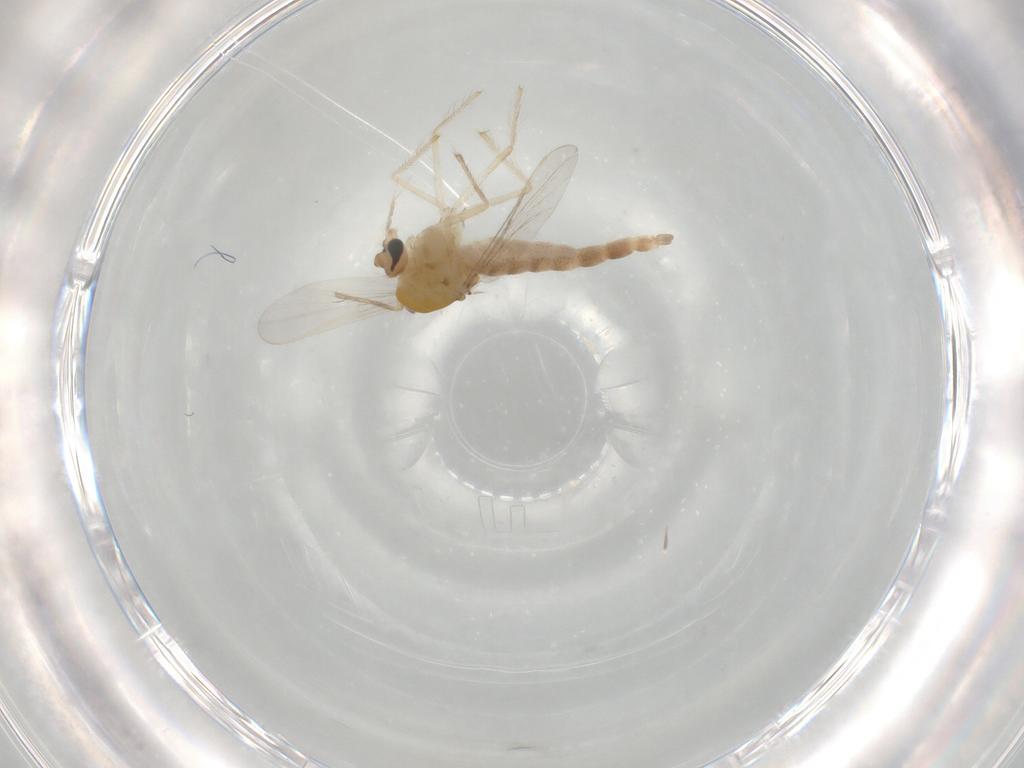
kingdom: Animalia
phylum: Arthropoda
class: Insecta
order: Diptera
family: Chironomidae
